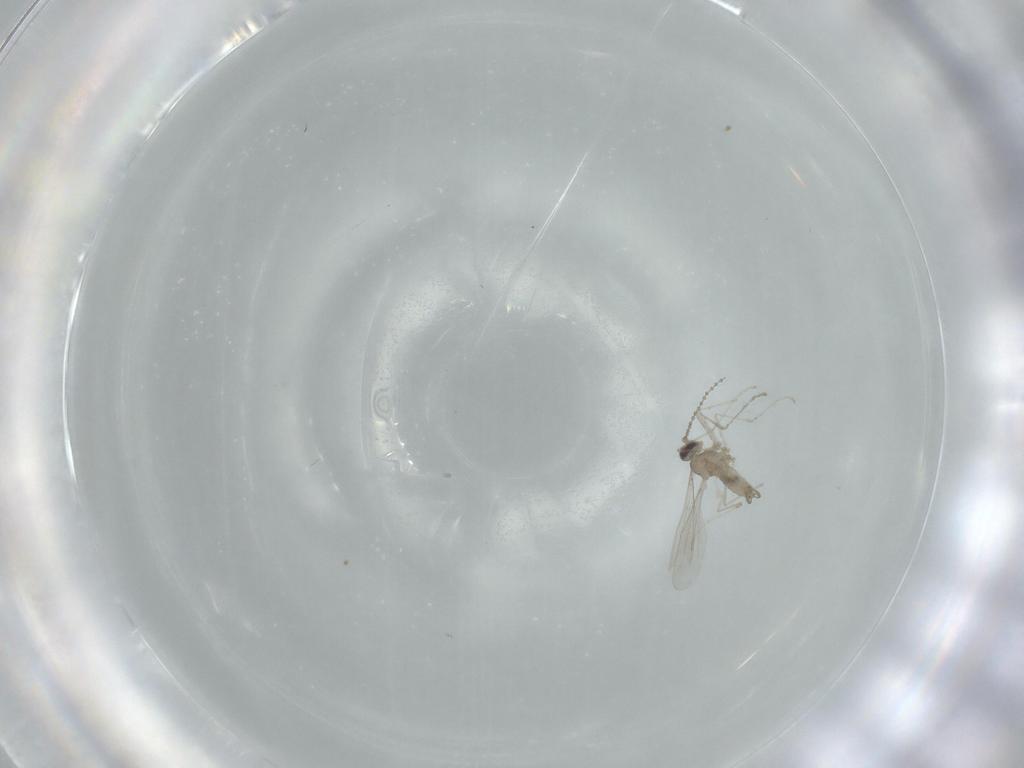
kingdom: Animalia
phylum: Arthropoda
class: Insecta
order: Diptera
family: Cecidomyiidae
